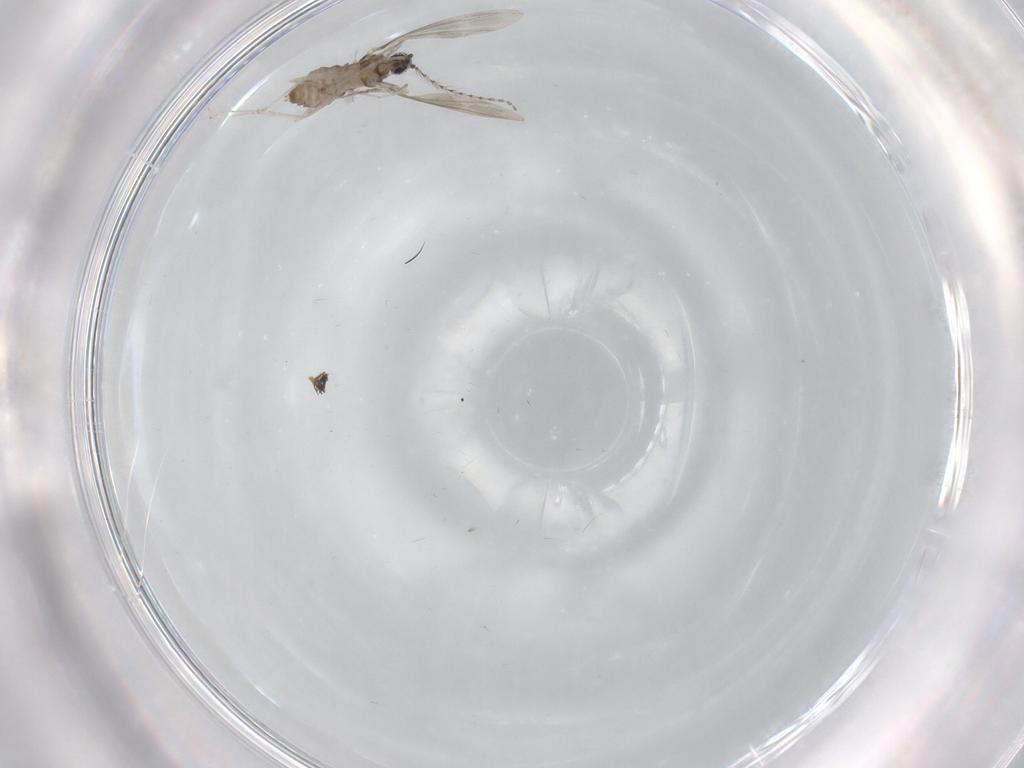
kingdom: Animalia
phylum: Arthropoda
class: Insecta
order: Diptera
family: Cecidomyiidae
